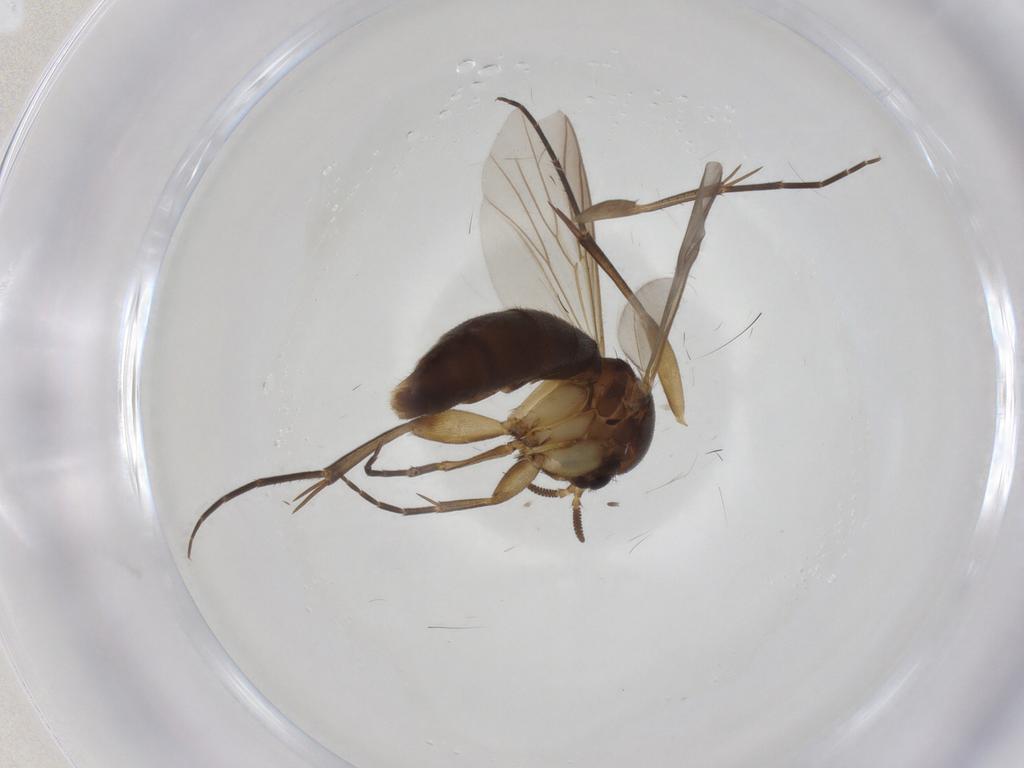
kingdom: Animalia
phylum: Arthropoda
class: Insecta
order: Diptera
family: Mycetophilidae
